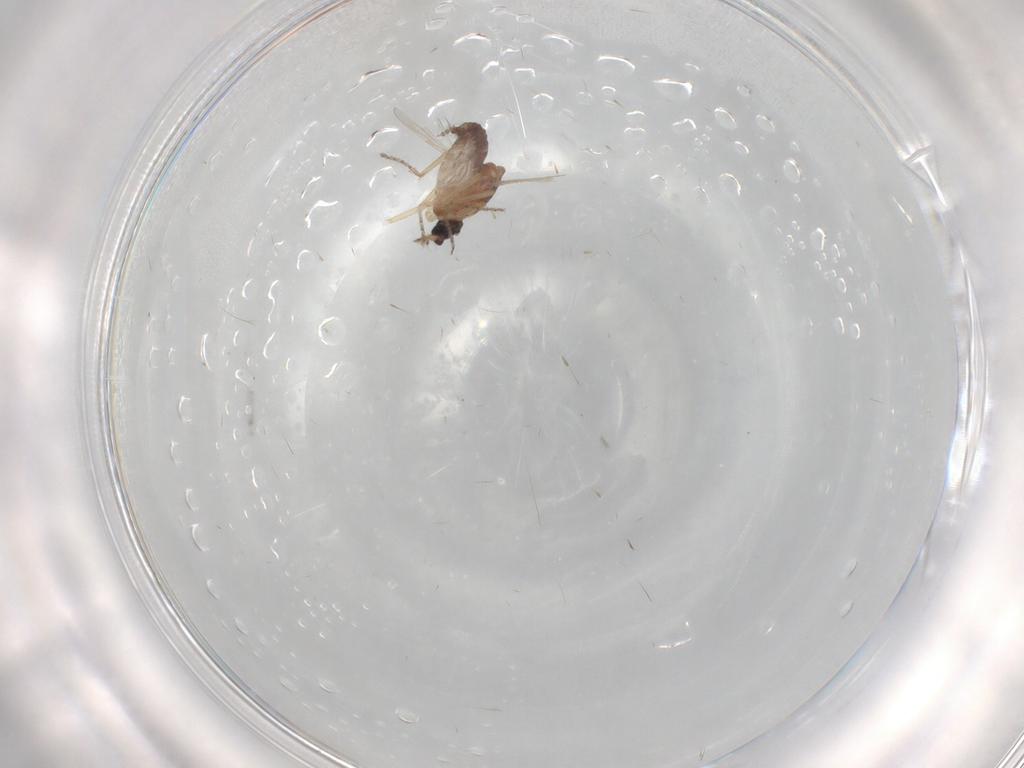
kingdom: Animalia
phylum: Arthropoda
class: Insecta
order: Diptera
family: Ceratopogonidae
